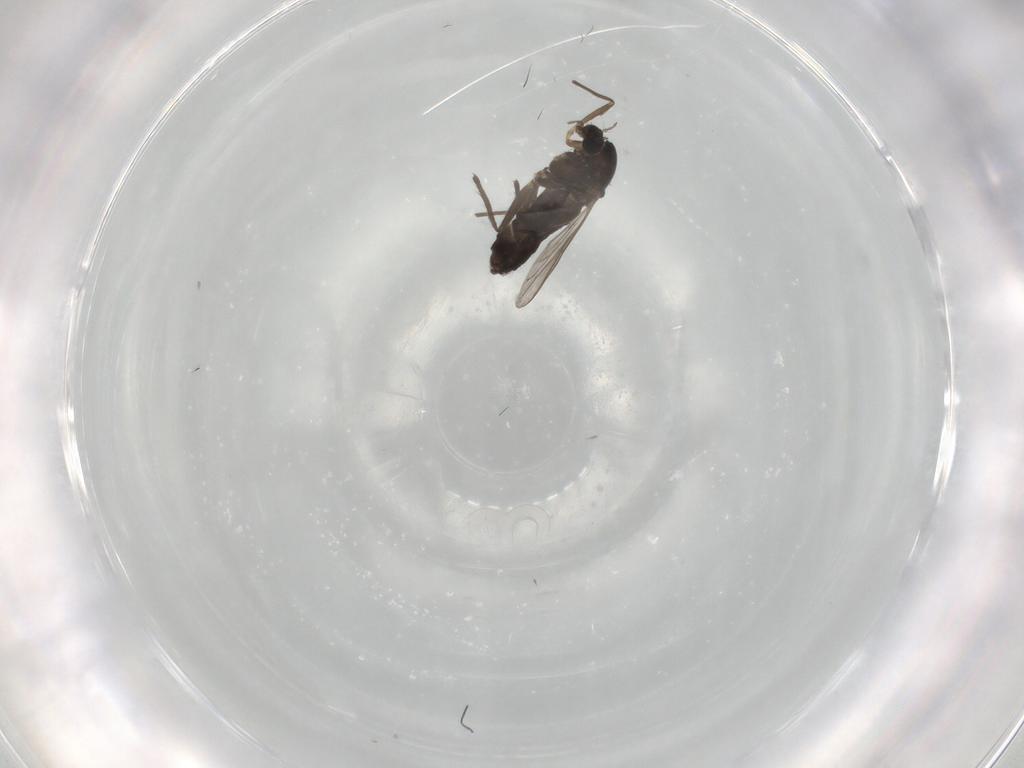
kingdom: Animalia
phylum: Arthropoda
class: Insecta
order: Diptera
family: Chironomidae
